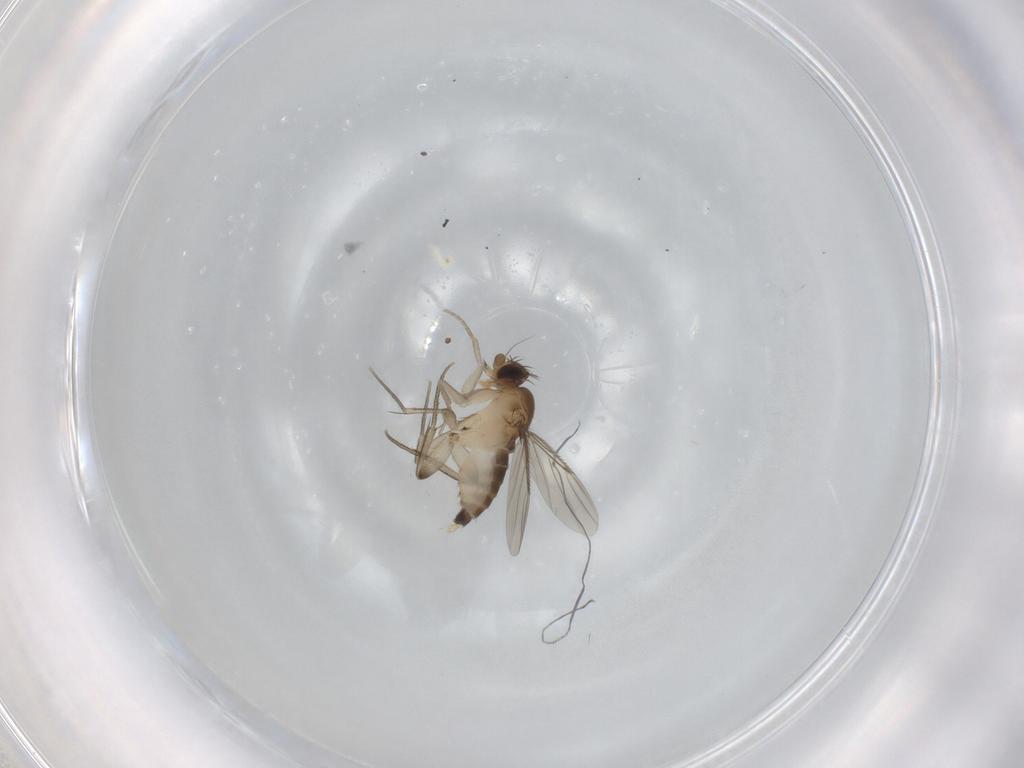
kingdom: Animalia
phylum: Arthropoda
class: Insecta
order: Diptera
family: Phoridae
